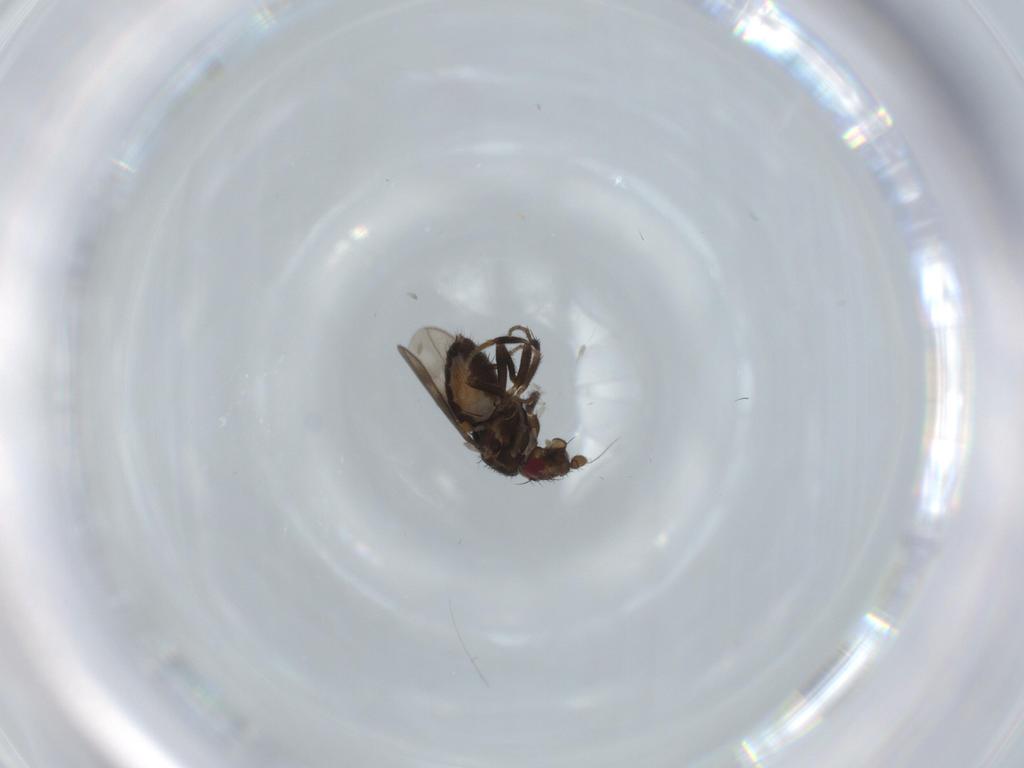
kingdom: Animalia
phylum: Arthropoda
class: Insecta
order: Diptera
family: Sphaeroceridae
